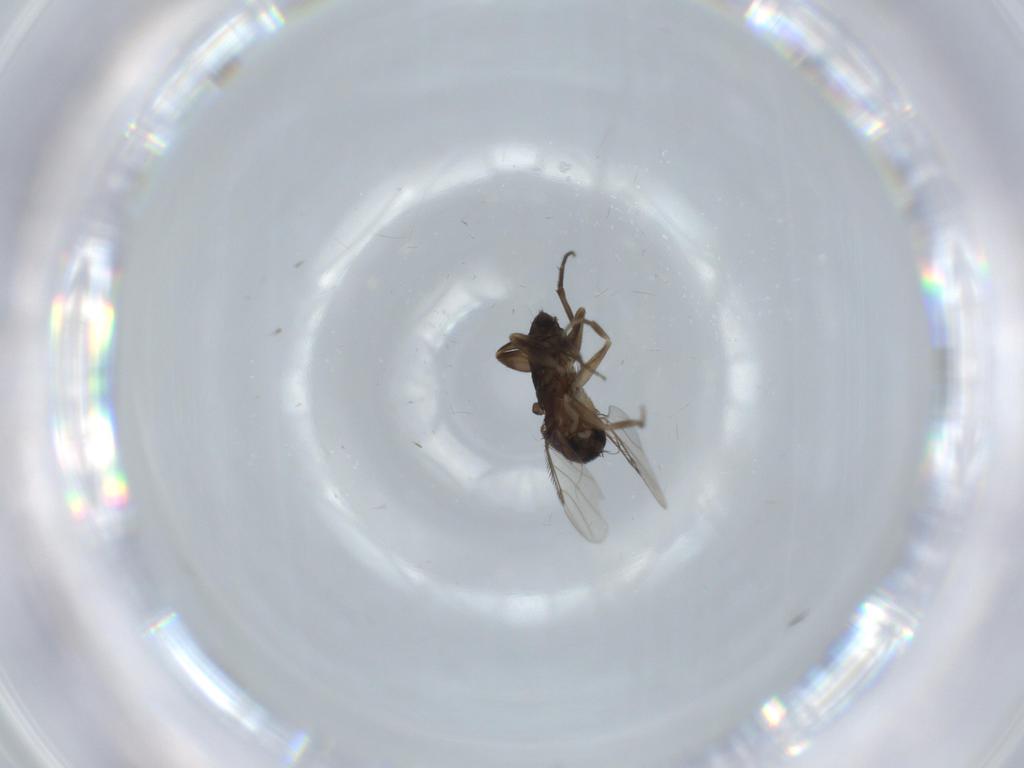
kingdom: Animalia
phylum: Arthropoda
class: Insecta
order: Diptera
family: Phoridae
